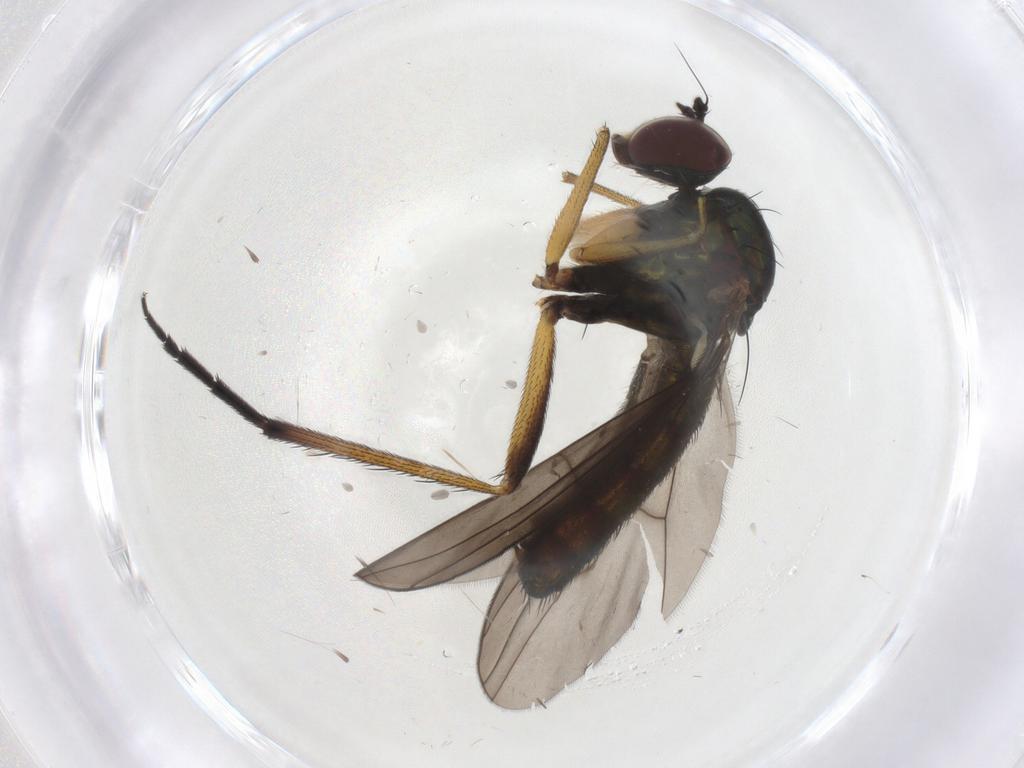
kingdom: Animalia
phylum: Arthropoda
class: Insecta
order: Diptera
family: Dolichopodidae
